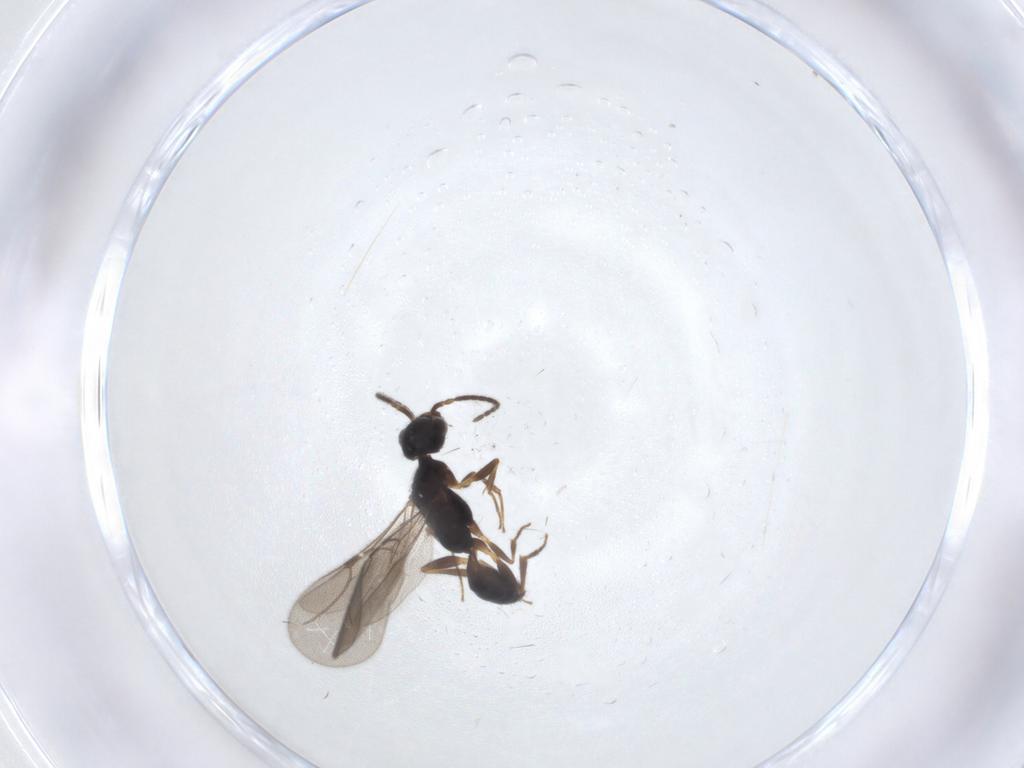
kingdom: Animalia
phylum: Arthropoda
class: Insecta
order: Hymenoptera
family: Bethylidae
